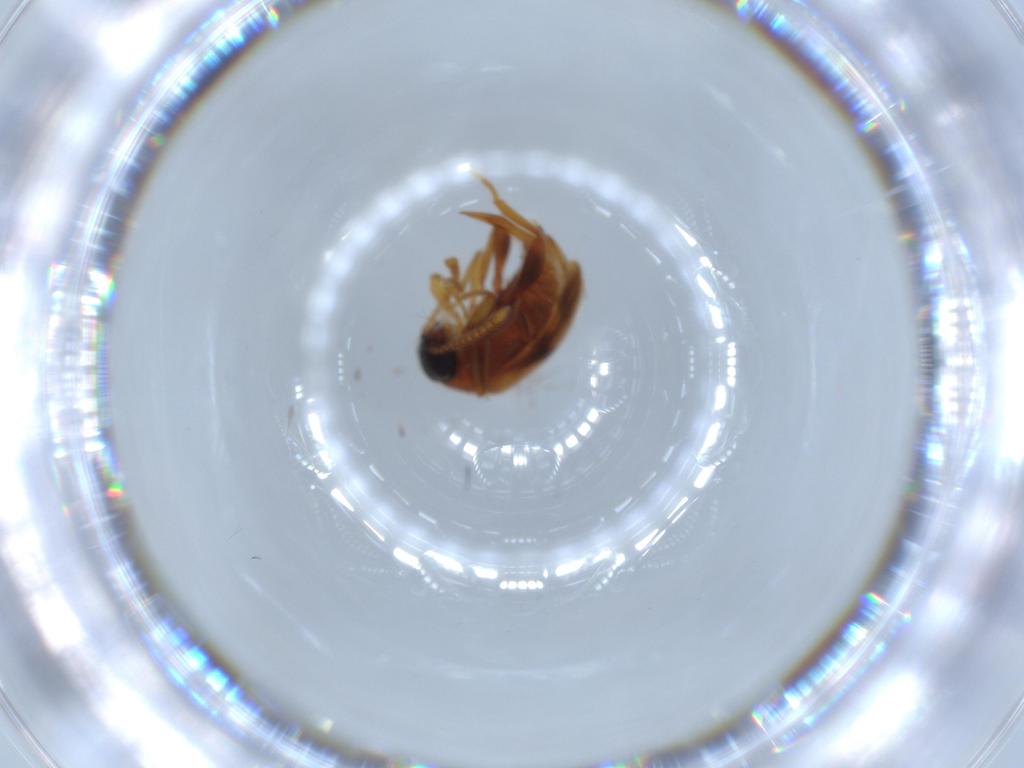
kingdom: Animalia
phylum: Arthropoda
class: Insecta
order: Coleoptera
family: Aderidae
